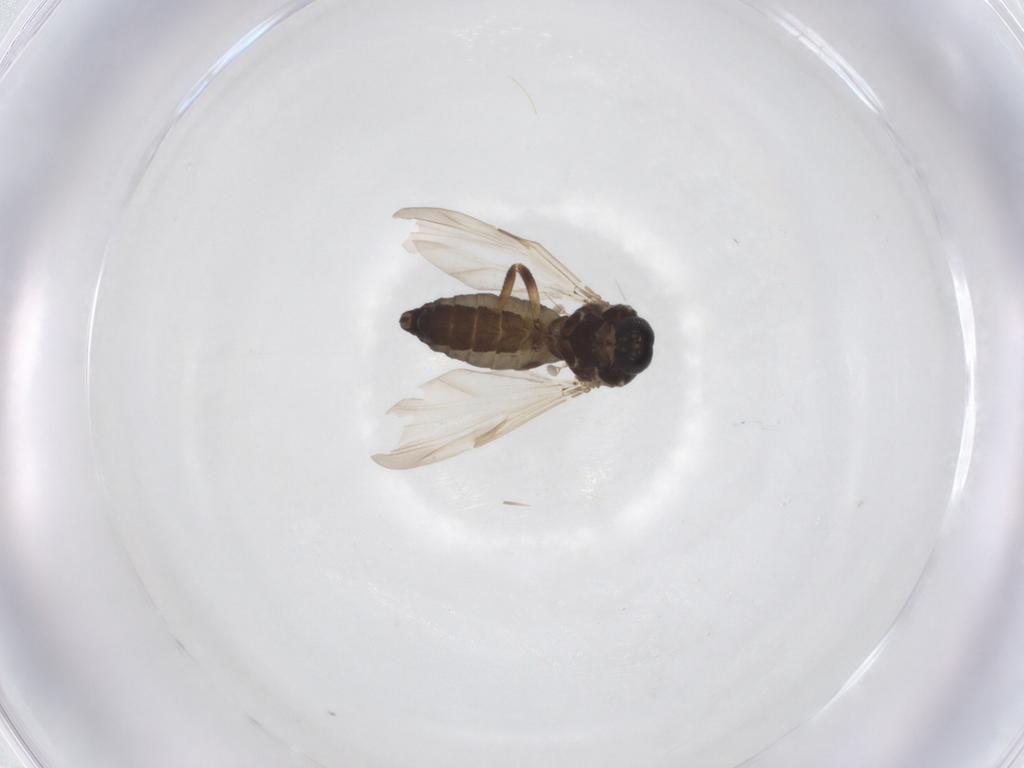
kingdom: Animalia
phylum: Arthropoda
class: Insecta
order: Diptera
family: Ceratopogonidae
